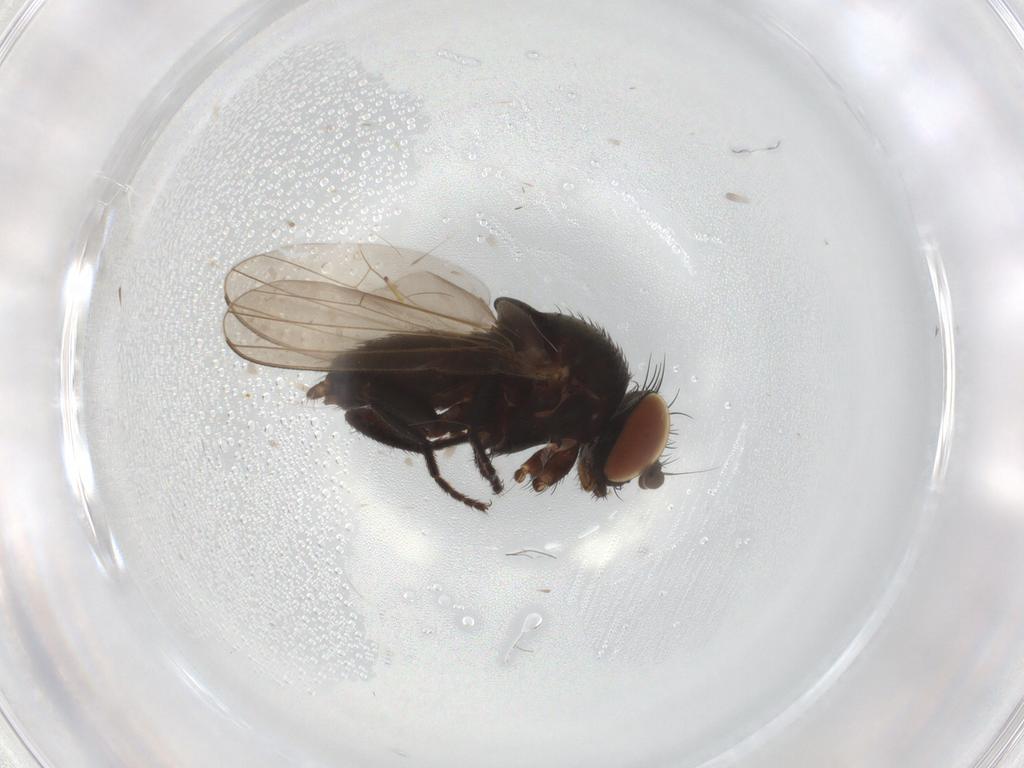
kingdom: Animalia
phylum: Arthropoda
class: Insecta
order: Diptera
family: Milichiidae
